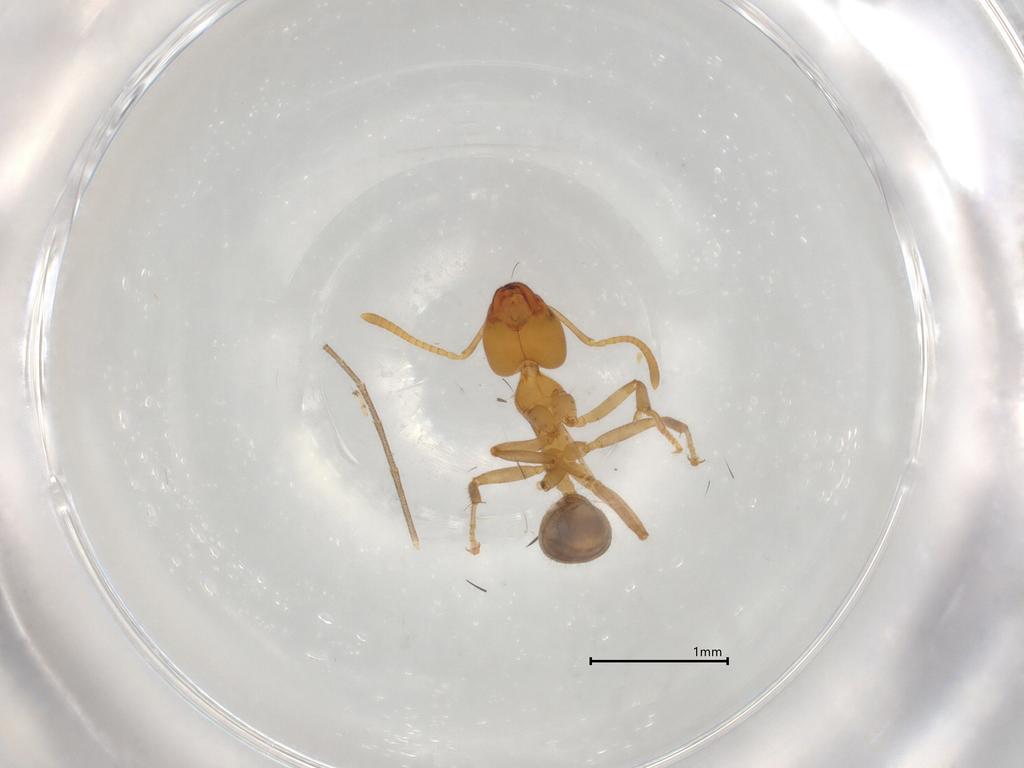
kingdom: Animalia
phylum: Arthropoda
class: Insecta
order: Hymenoptera
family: Formicidae
